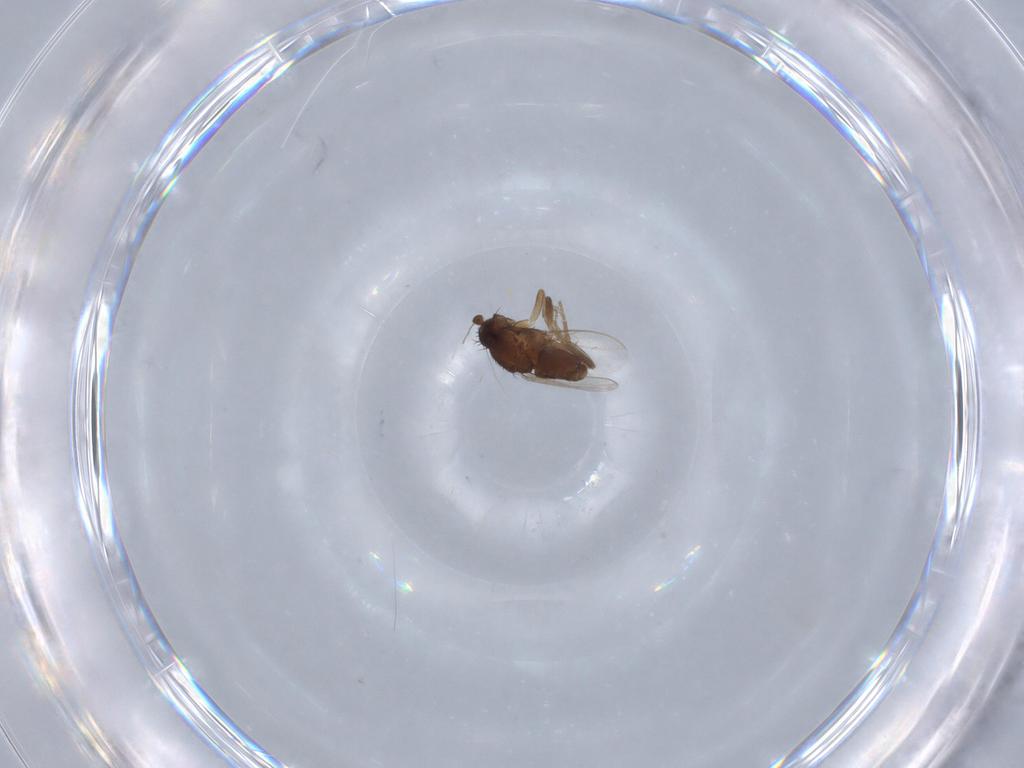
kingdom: Animalia
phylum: Arthropoda
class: Insecta
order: Diptera
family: Sphaeroceridae
